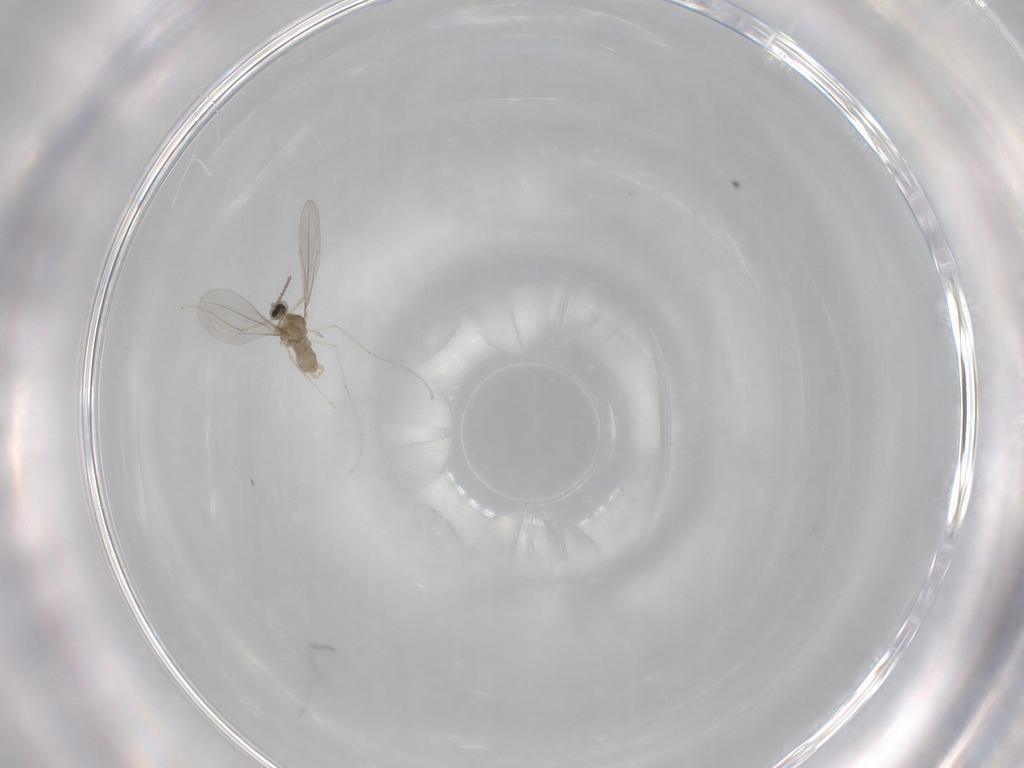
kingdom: Animalia
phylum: Arthropoda
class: Insecta
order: Diptera
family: Cecidomyiidae
